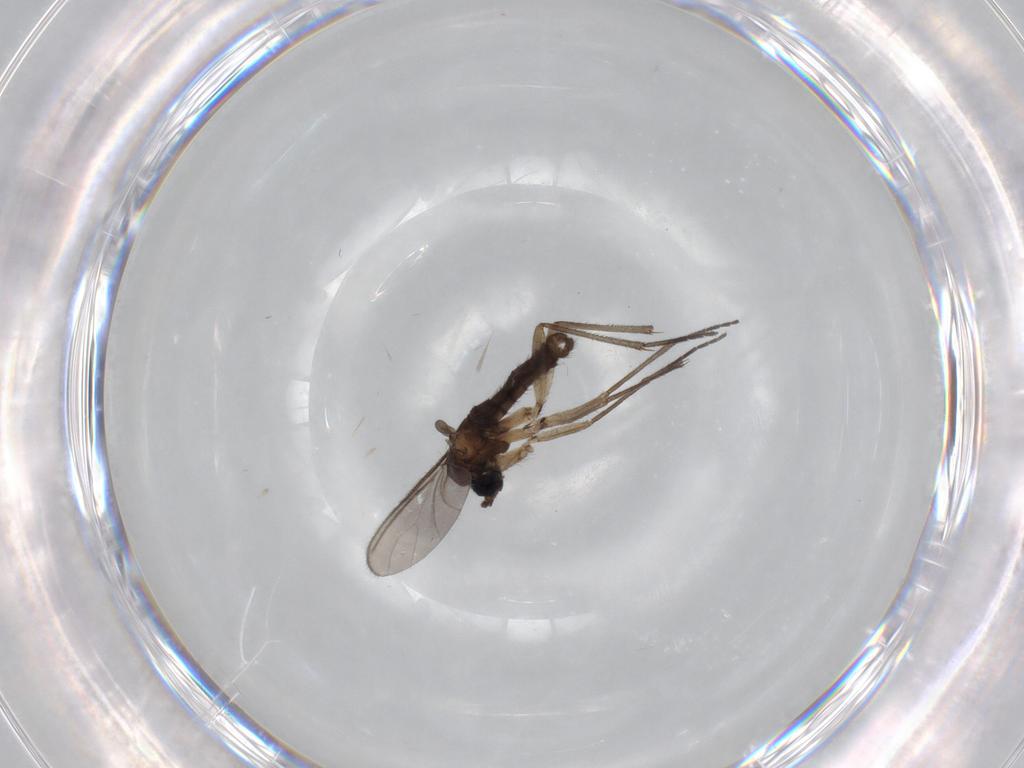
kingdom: Animalia
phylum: Arthropoda
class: Insecta
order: Diptera
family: Sciaridae
